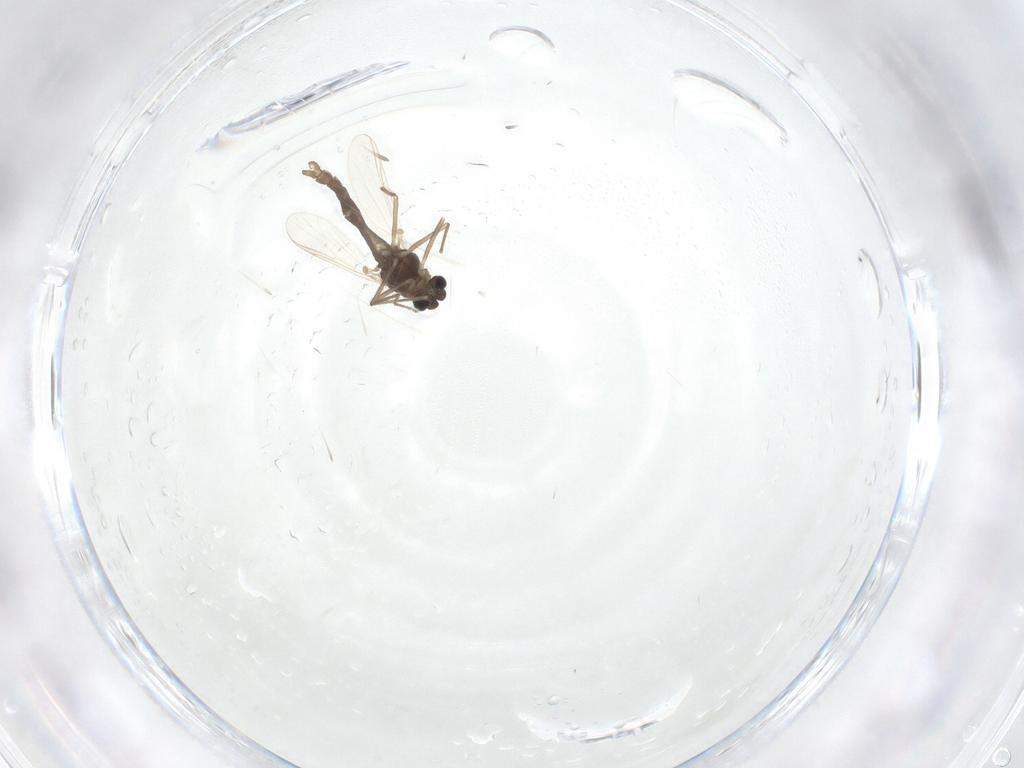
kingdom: Animalia
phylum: Arthropoda
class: Insecta
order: Diptera
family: Chironomidae
